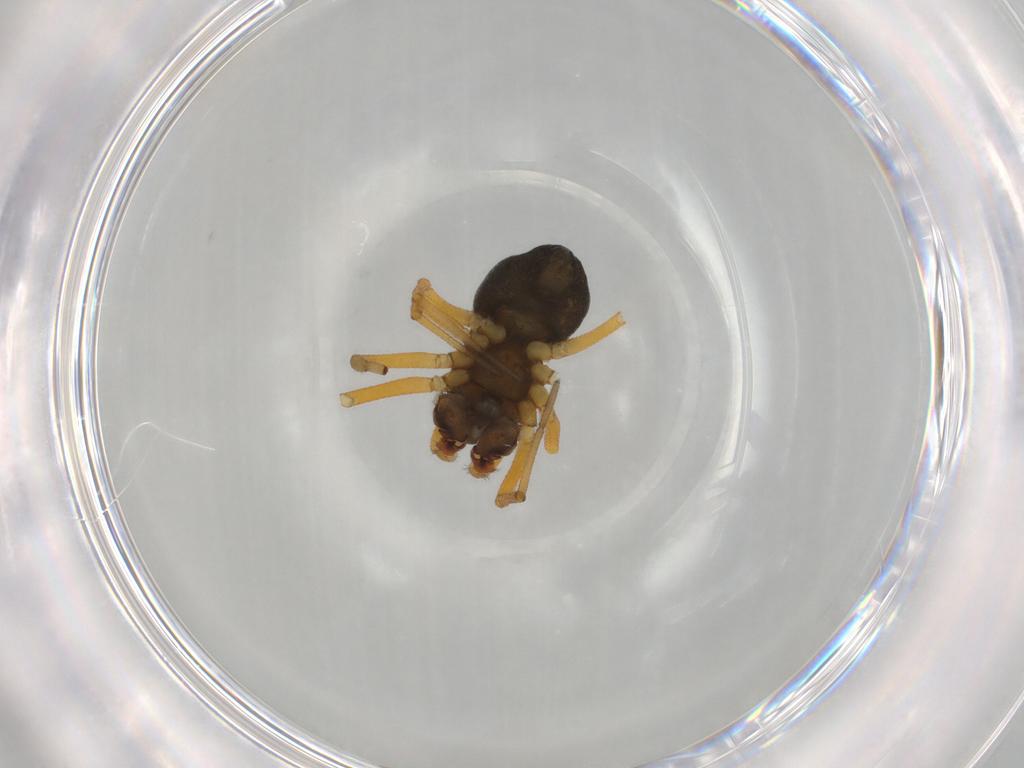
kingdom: Animalia
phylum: Arthropoda
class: Arachnida
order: Araneae
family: Linyphiidae
